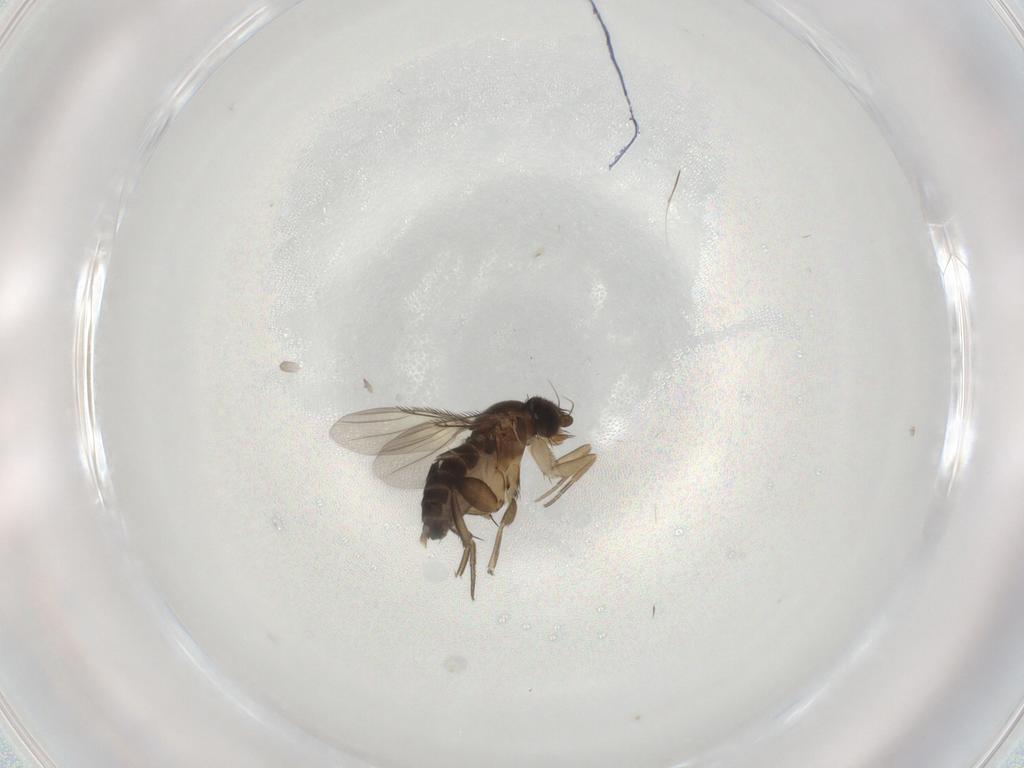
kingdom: Animalia
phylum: Arthropoda
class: Insecta
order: Diptera
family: Phoridae
